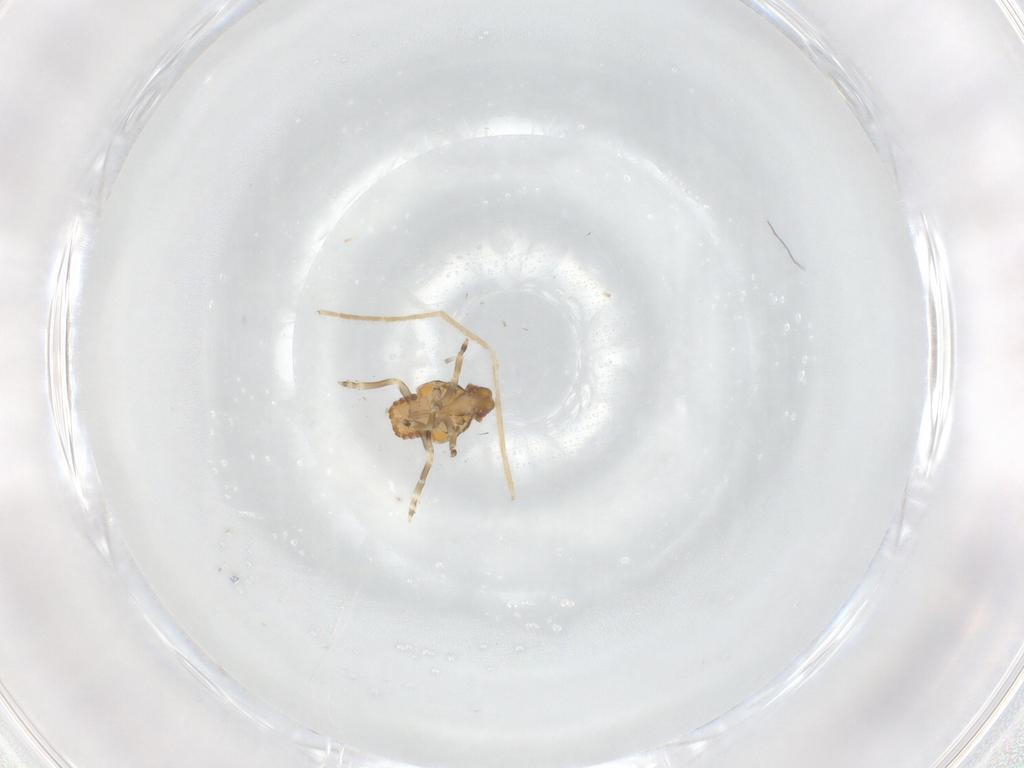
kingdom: Animalia
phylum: Arthropoda
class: Insecta
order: Hemiptera
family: Flatidae
